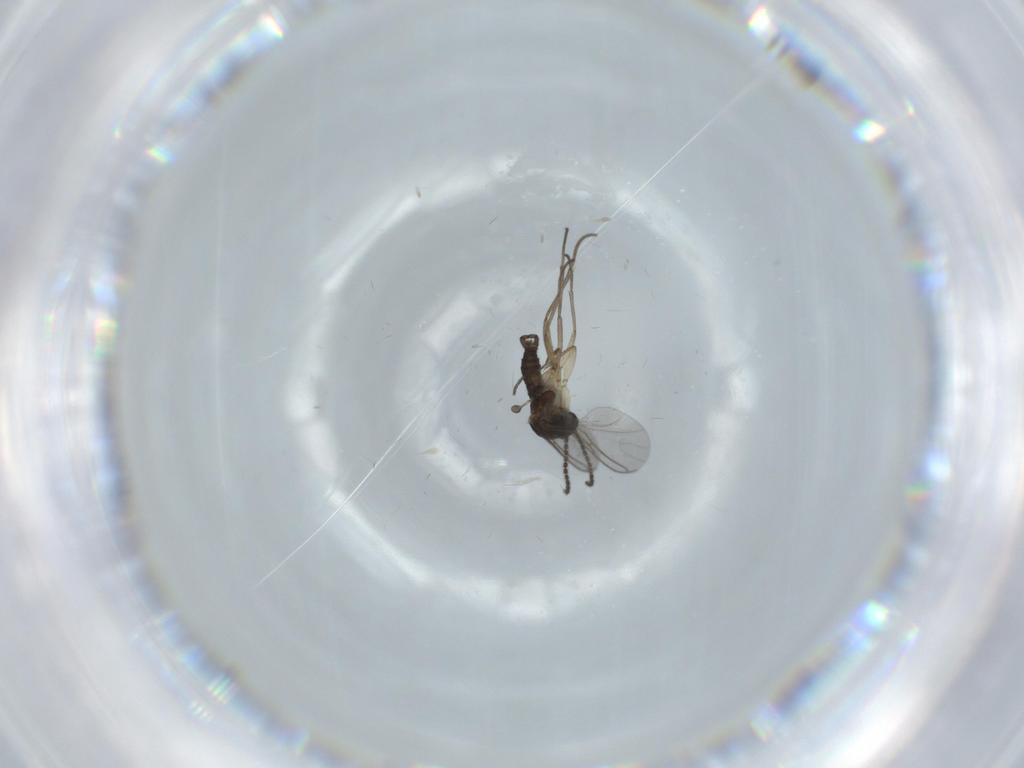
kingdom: Animalia
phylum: Arthropoda
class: Insecta
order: Diptera
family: Sciaridae
